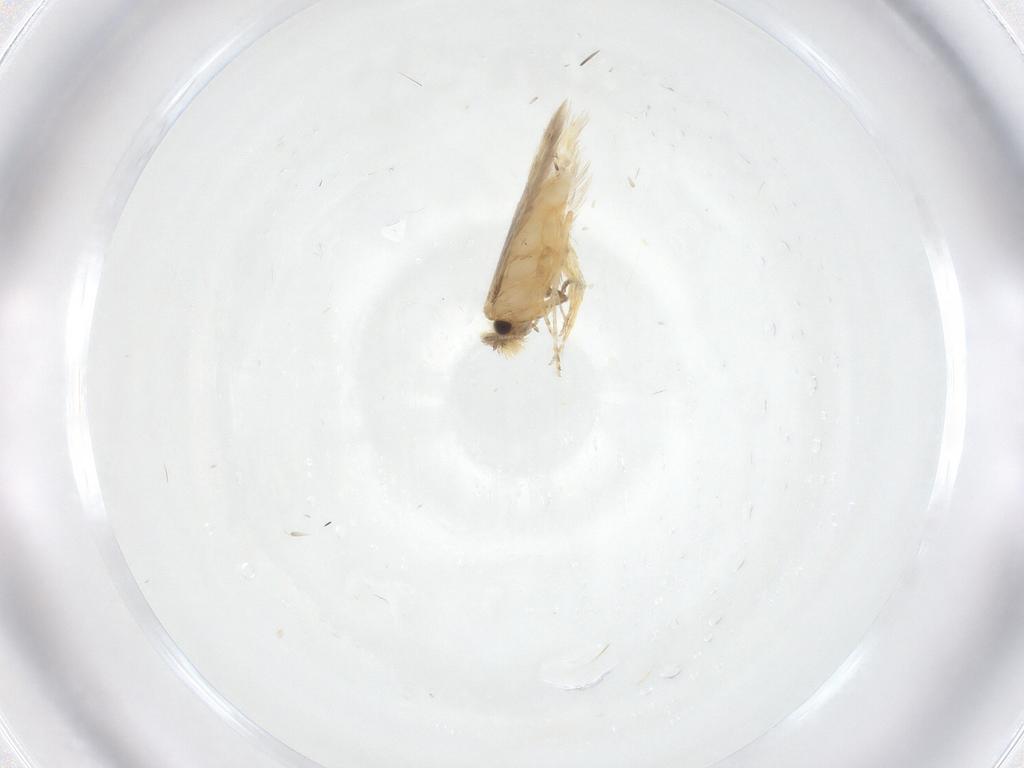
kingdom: Animalia
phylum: Arthropoda
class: Insecta
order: Lepidoptera
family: Nepticulidae
